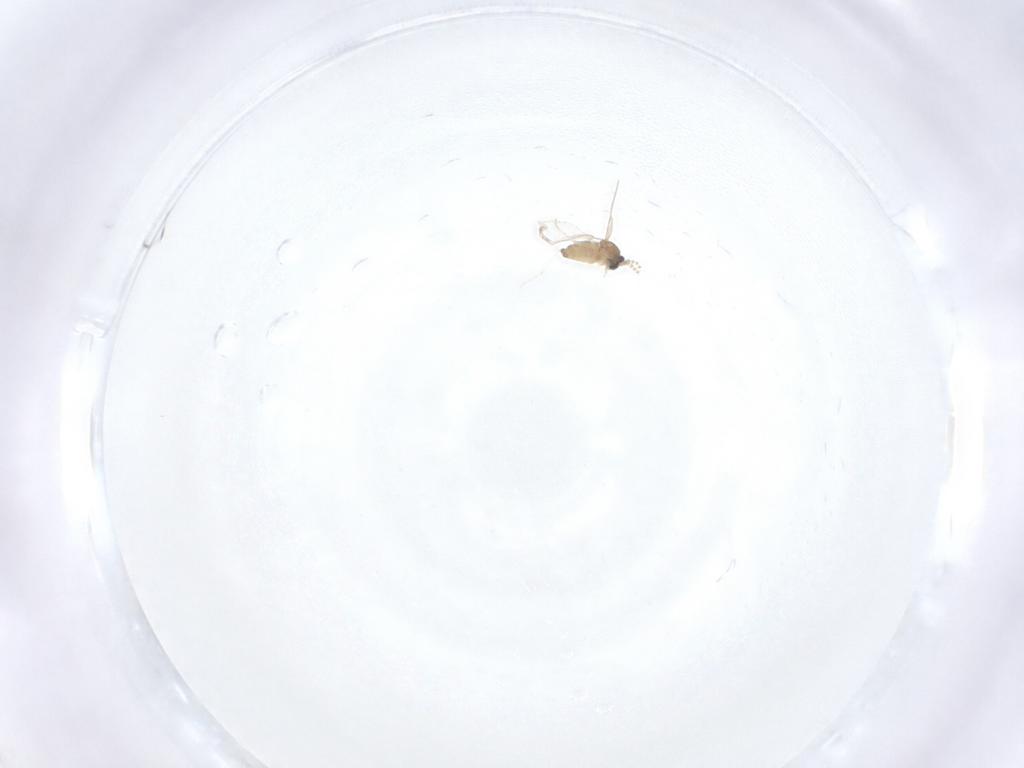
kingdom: Animalia
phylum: Arthropoda
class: Insecta
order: Diptera
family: Cecidomyiidae
